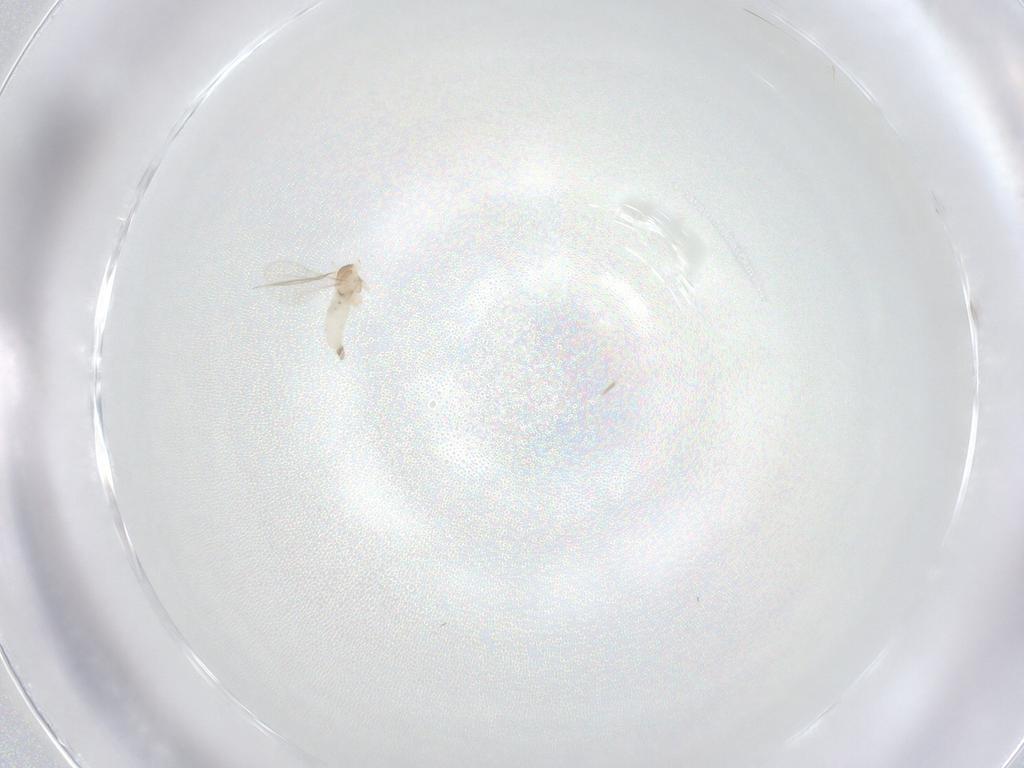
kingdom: Animalia
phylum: Arthropoda
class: Insecta
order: Diptera
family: Cecidomyiidae
